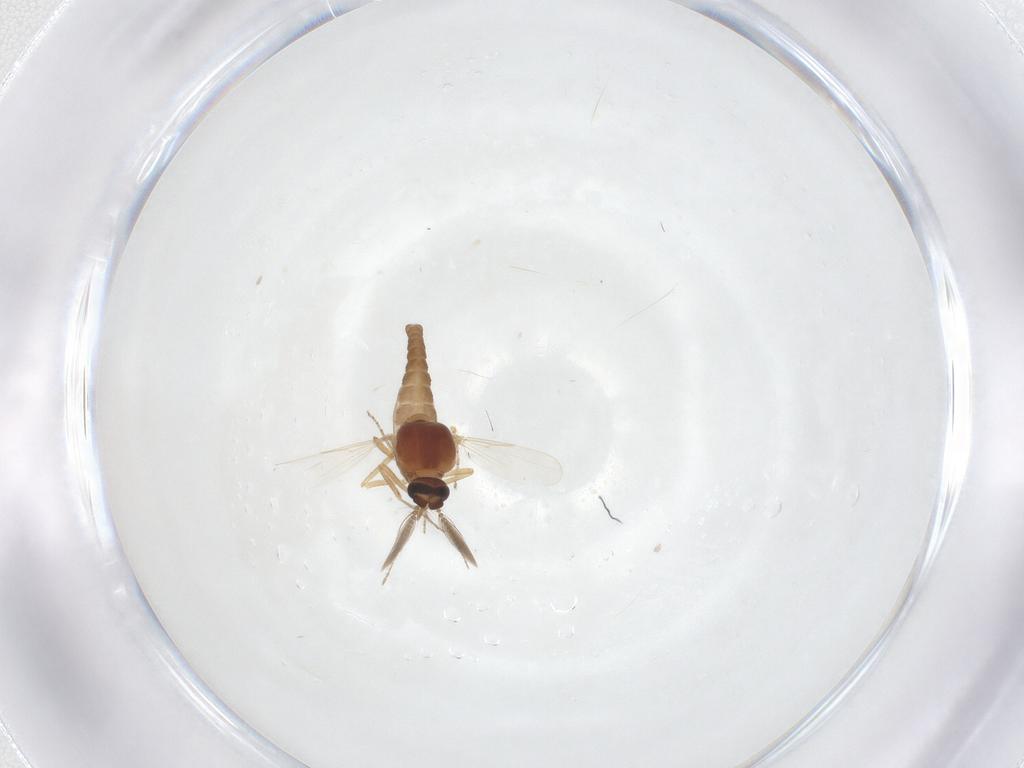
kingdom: Animalia
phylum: Arthropoda
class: Insecta
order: Diptera
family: Ceratopogonidae
